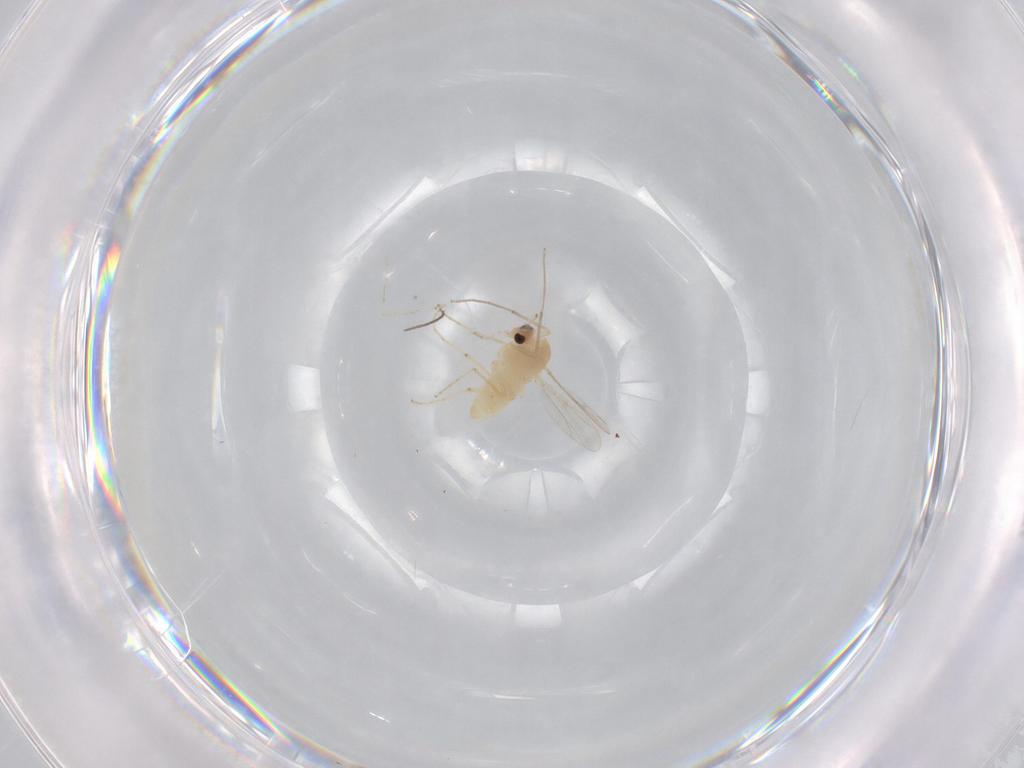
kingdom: Animalia
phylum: Arthropoda
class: Insecta
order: Diptera
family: Chironomidae
